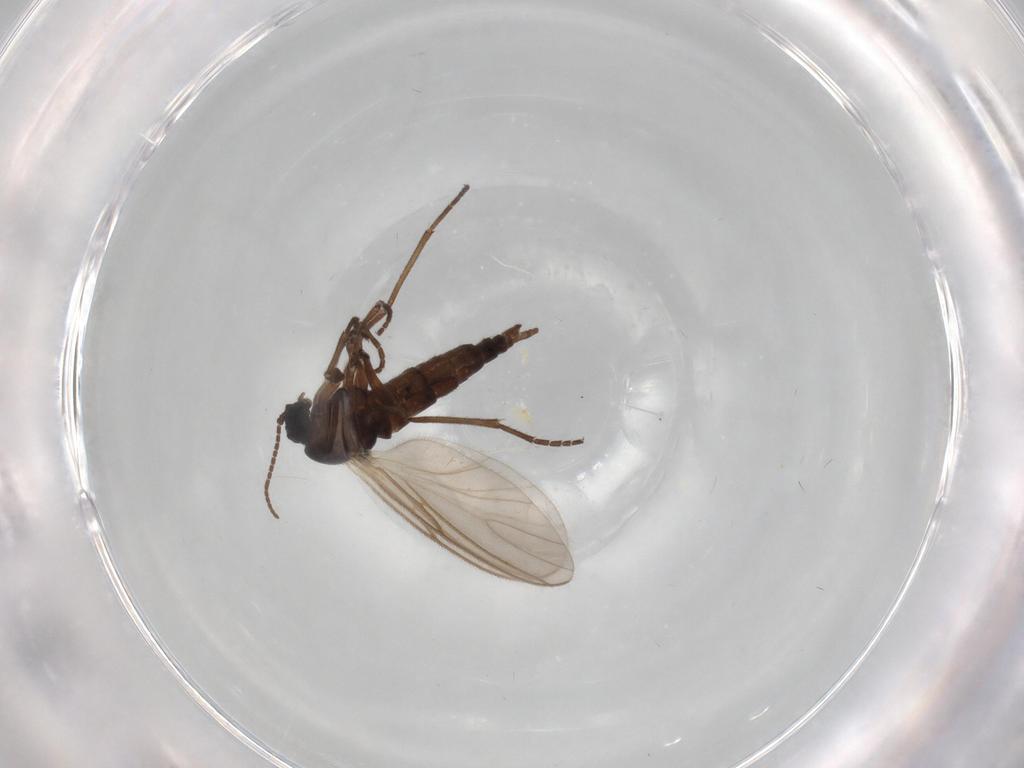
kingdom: Animalia
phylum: Arthropoda
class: Insecta
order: Diptera
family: Sciaridae
